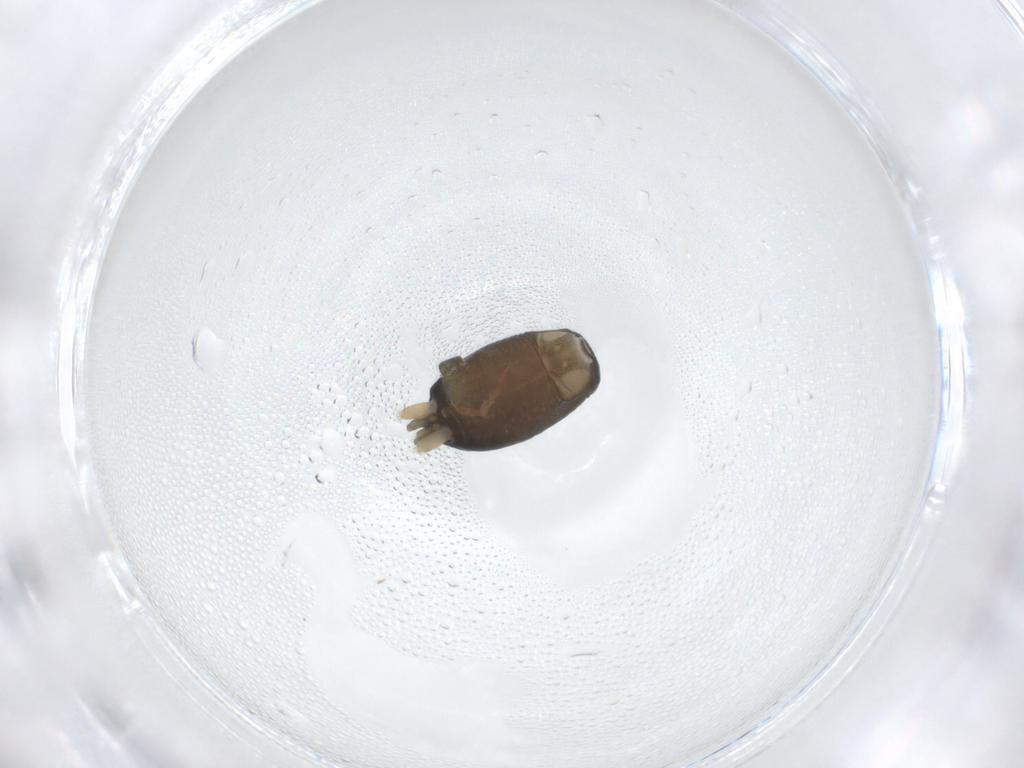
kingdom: Animalia
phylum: Arthropoda
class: Arachnida
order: Araneae
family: Gnaphosidae
